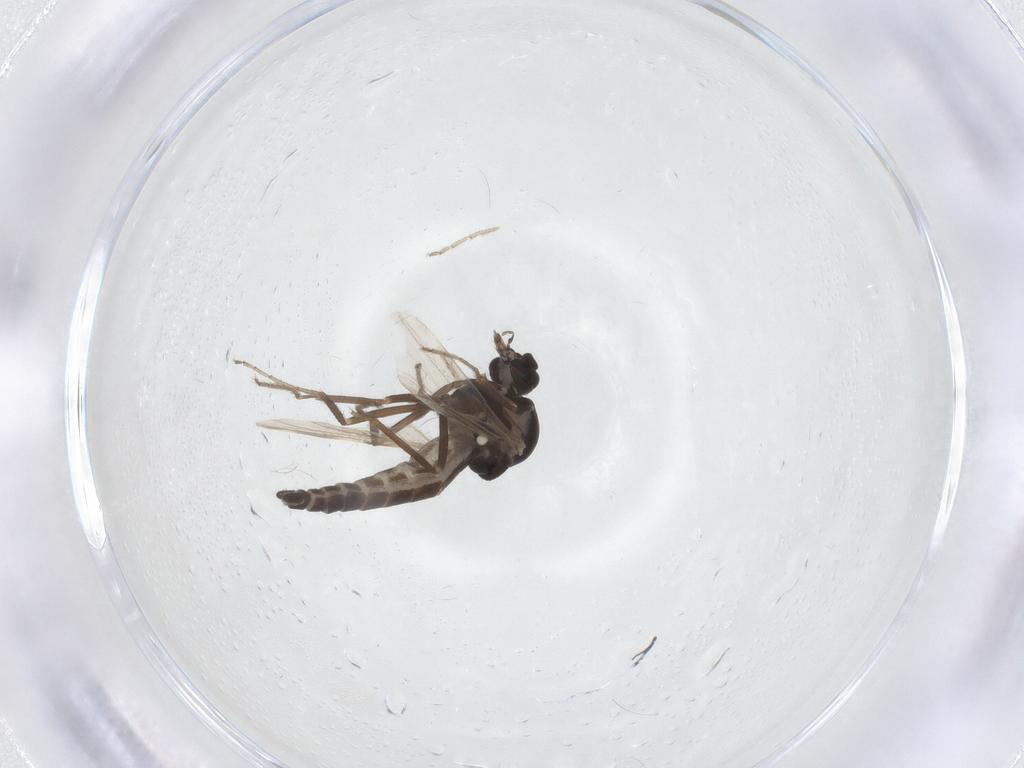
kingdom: Animalia
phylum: Arthropoda
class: Insecta
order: Diptera
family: Ceratopogonidae
